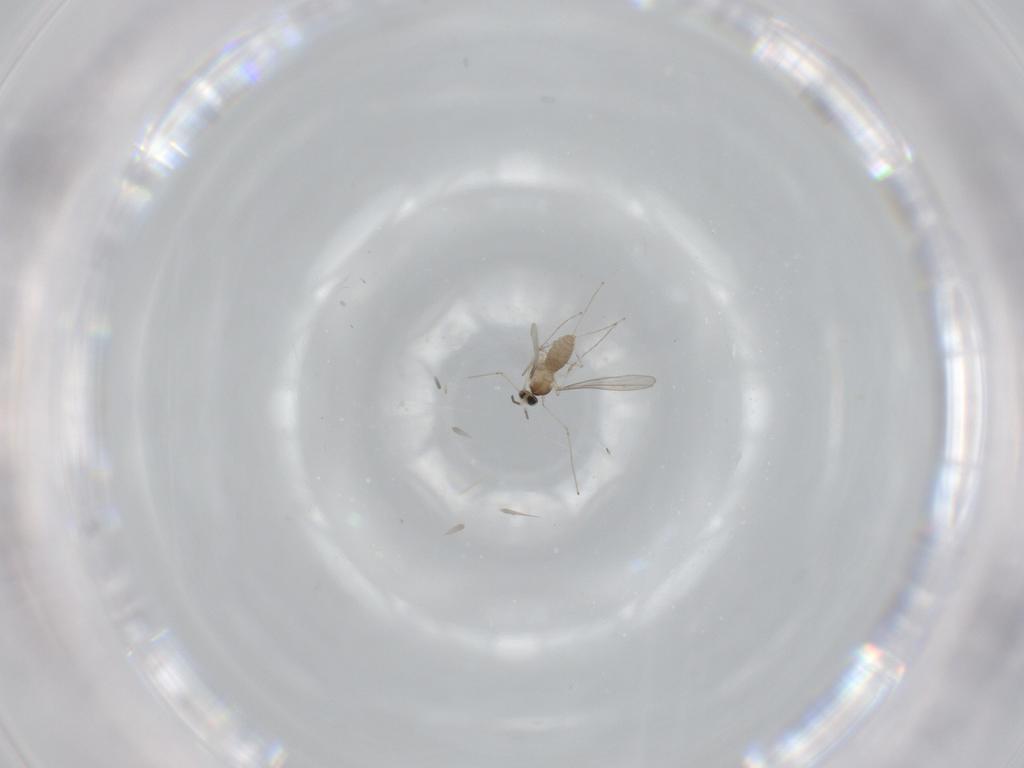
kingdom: Animalia
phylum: Arthropoda
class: Insecta
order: Diptera
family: Cecidomyiidae
